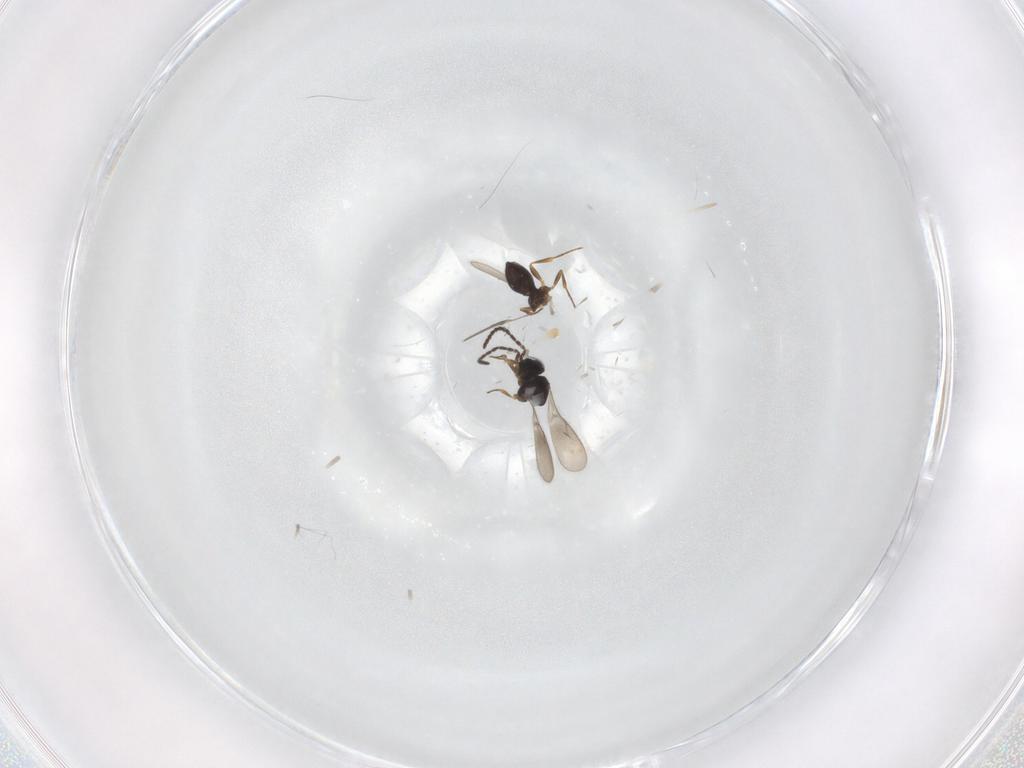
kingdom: Animalia
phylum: Arthropoda
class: Insecta
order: Hymenoptera
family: Scelionidae
